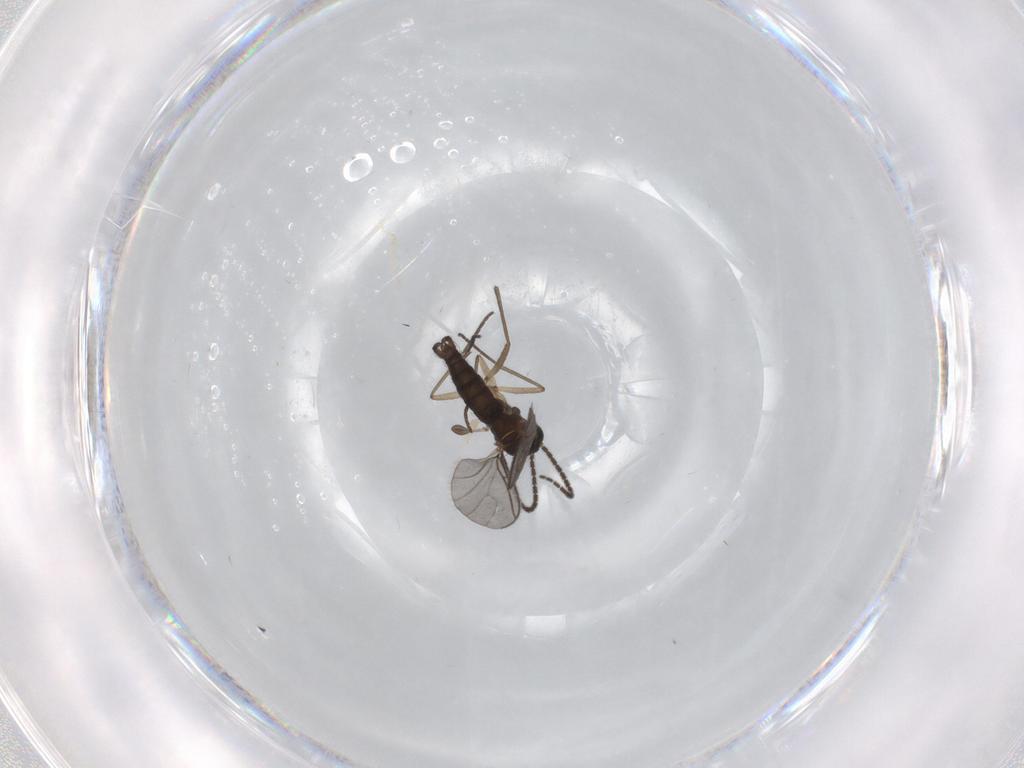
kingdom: Animalia
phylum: Arthropoda
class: Insecta
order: Diptera
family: Sciaridae
